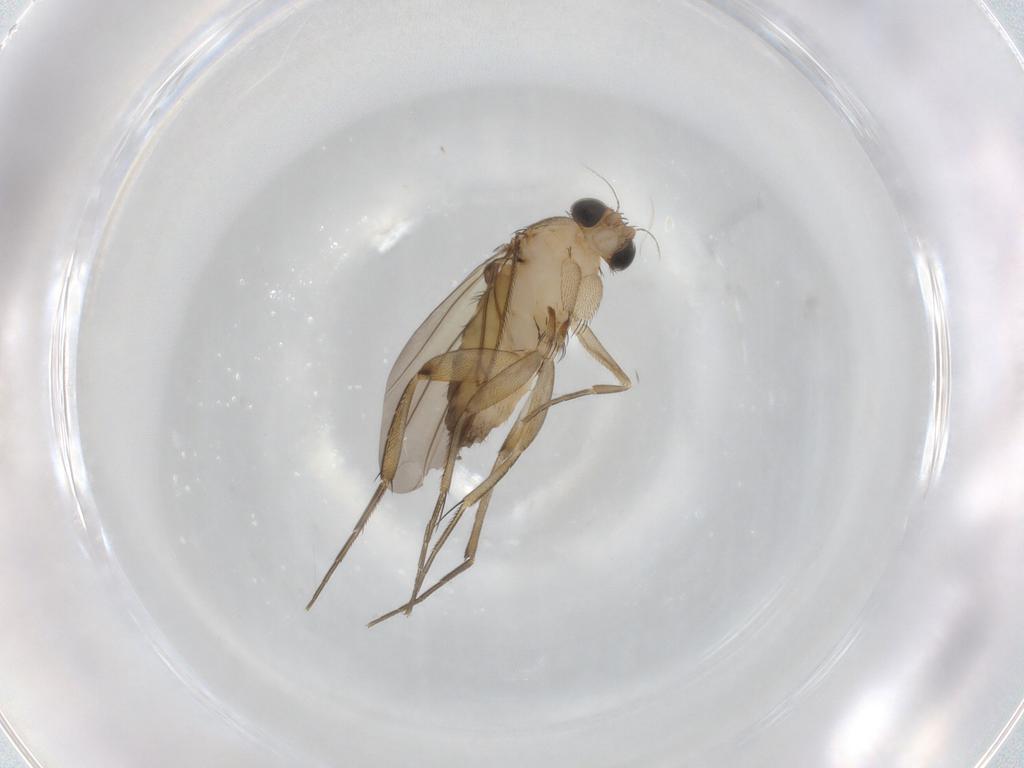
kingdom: Animalia
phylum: Arthropoda
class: Insecta
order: Diptera
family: Phoridae
